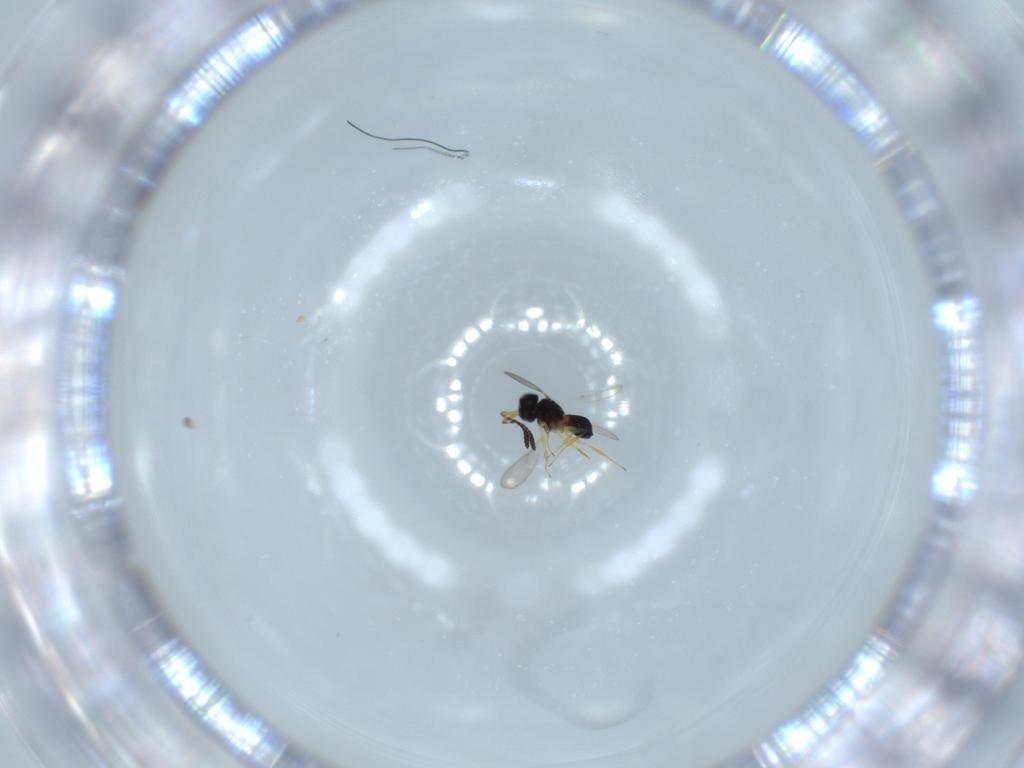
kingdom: Animalia
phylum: Arthropoda
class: Insecta
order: Hymenoptera
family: Scelionidae
